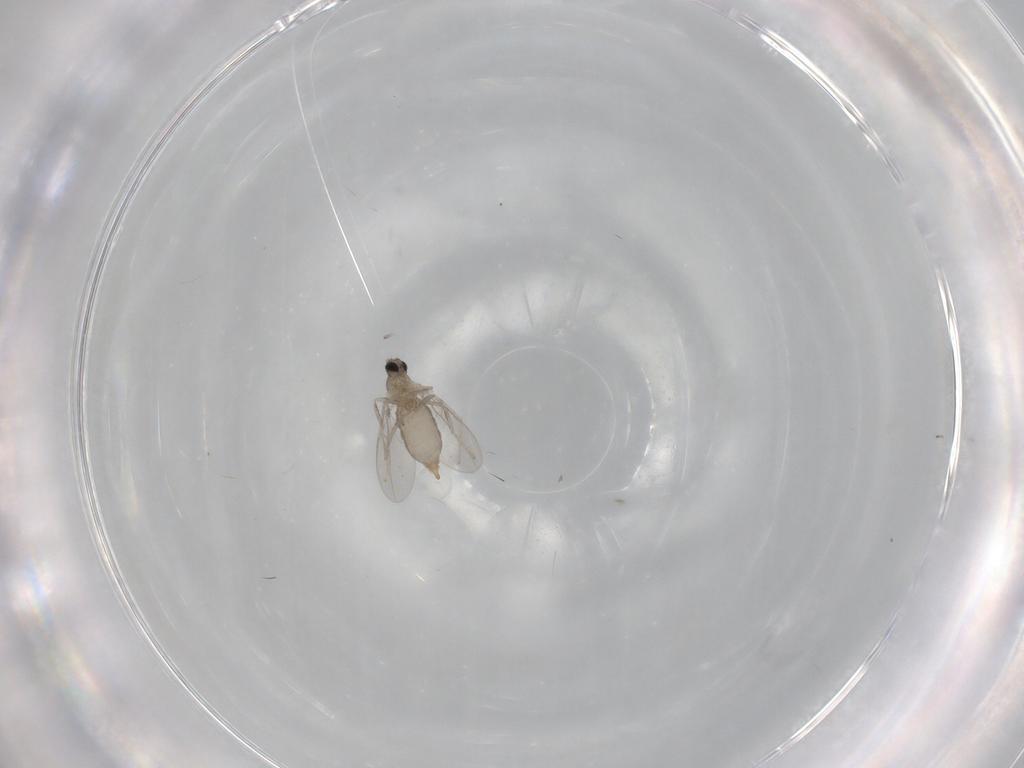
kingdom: Animalia
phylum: Arthropoda
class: Insecta
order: Diptera
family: Cecidomyiidae
